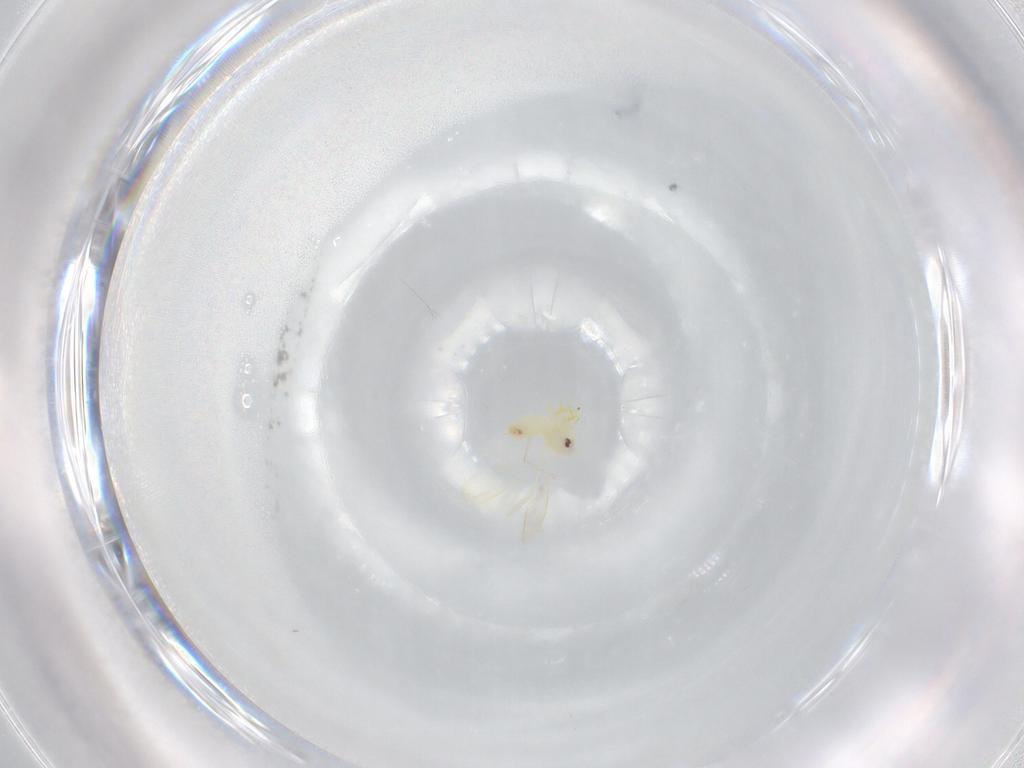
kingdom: Animalia
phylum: Arthropoda
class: Insecta
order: Hemiptera
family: Aleyrodidae
